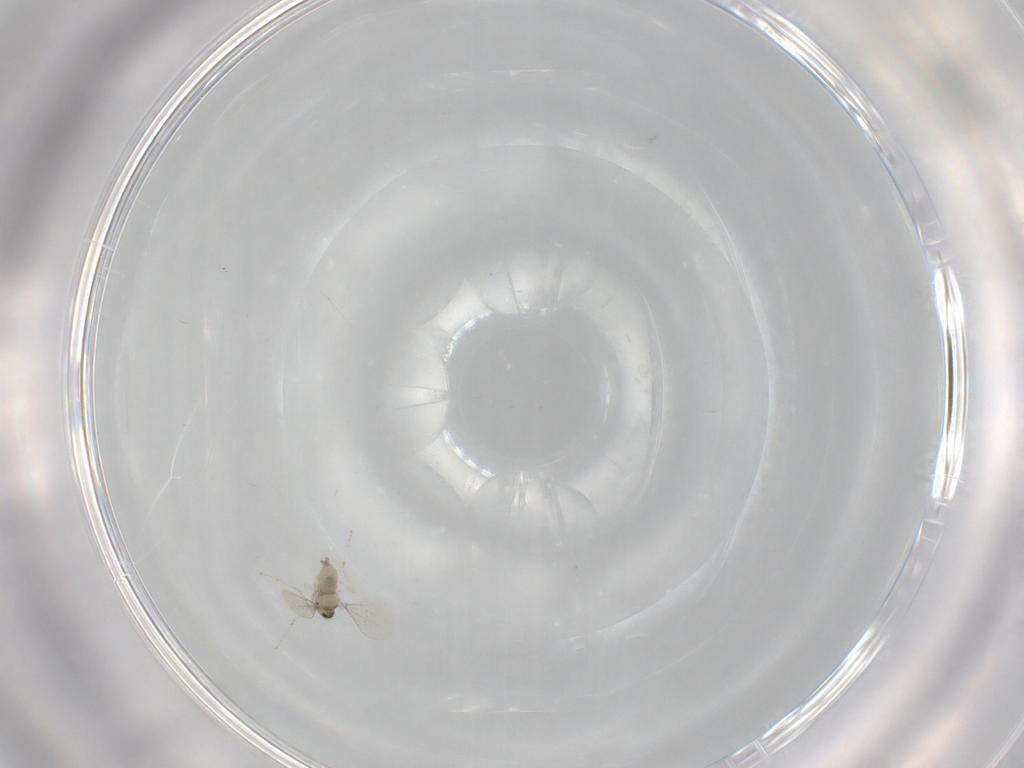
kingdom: Animalia
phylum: Arthropoda
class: Insecta
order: Diptera
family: Cecidomyiidae
